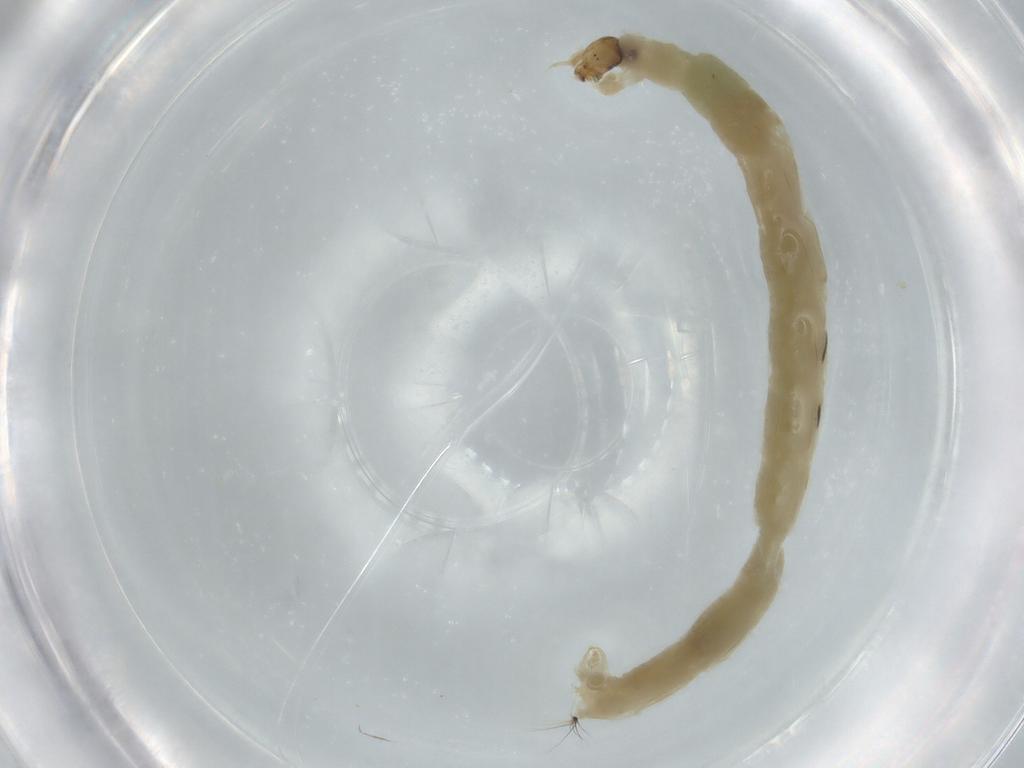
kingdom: Animalia
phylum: Arthropoda
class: Insecta
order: Diptera
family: Chironomidae
